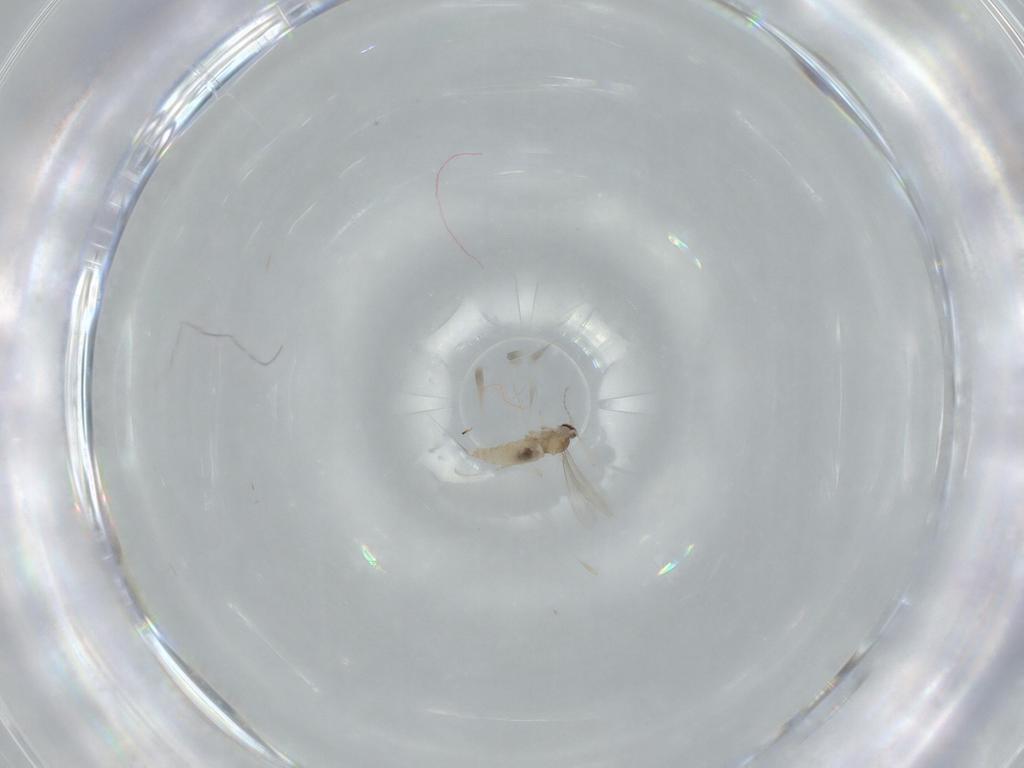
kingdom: Animalia
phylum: Arthropoda
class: Insecta
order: Diptera
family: Cecidomyiidae
